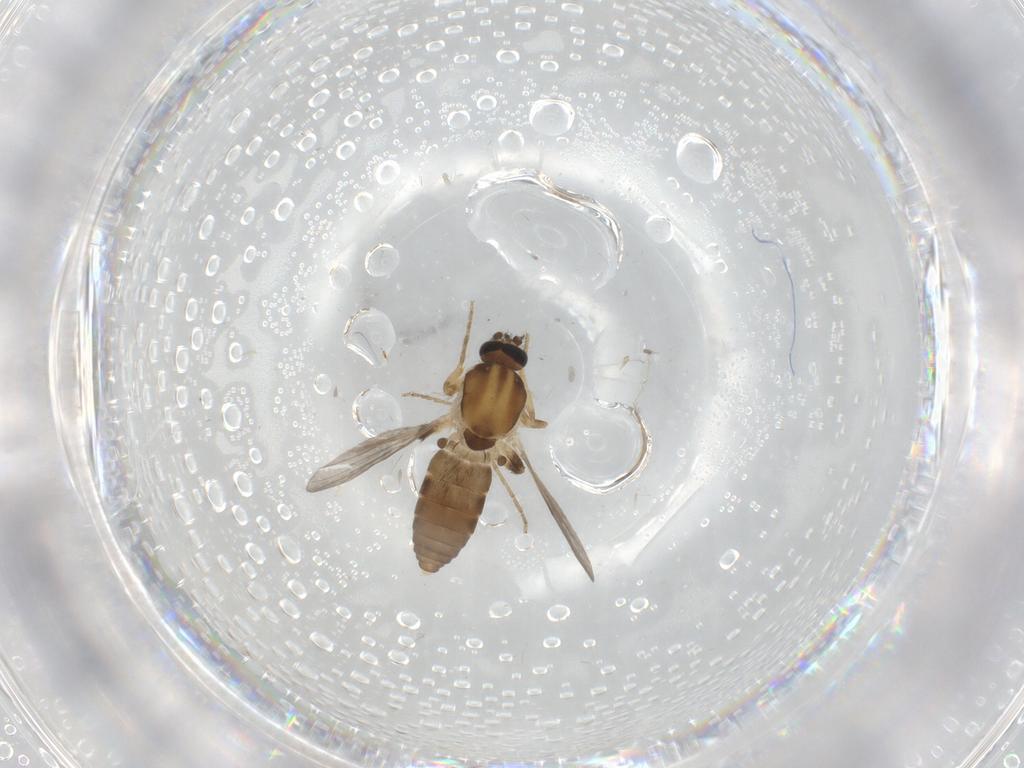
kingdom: Animalia
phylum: Arthropoda
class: Insecta
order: Diptera
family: Ceratopogonidae
